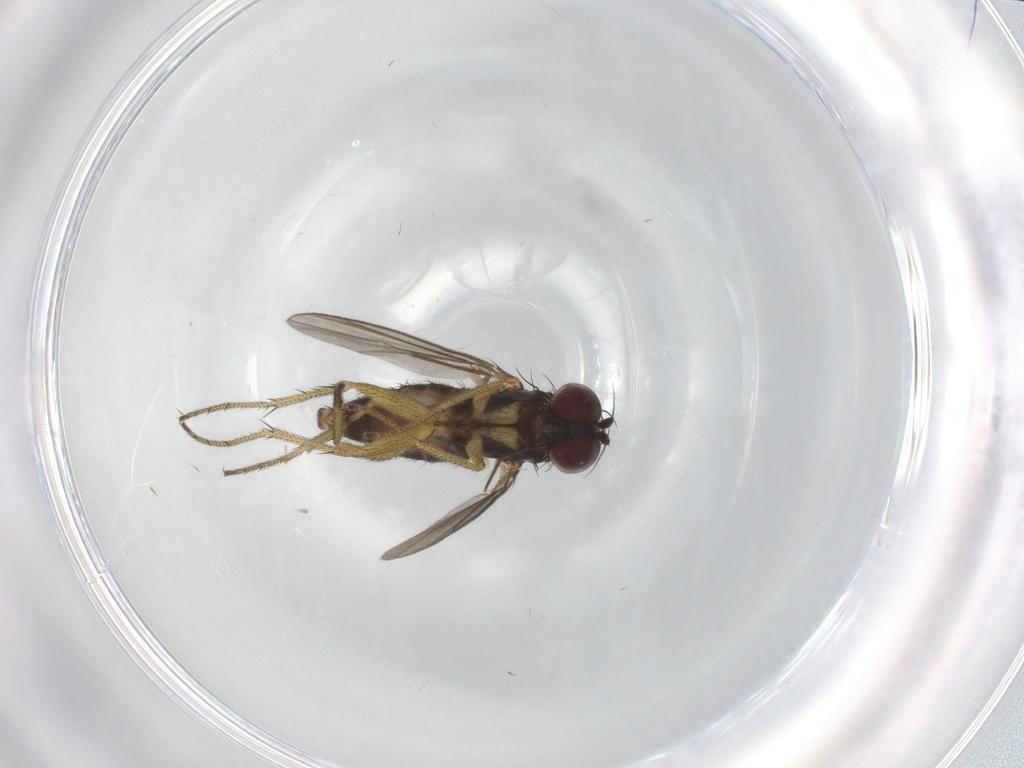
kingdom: Animalia
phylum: Arthropoda
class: Insecta
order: Diptera
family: Dolichopodidae
